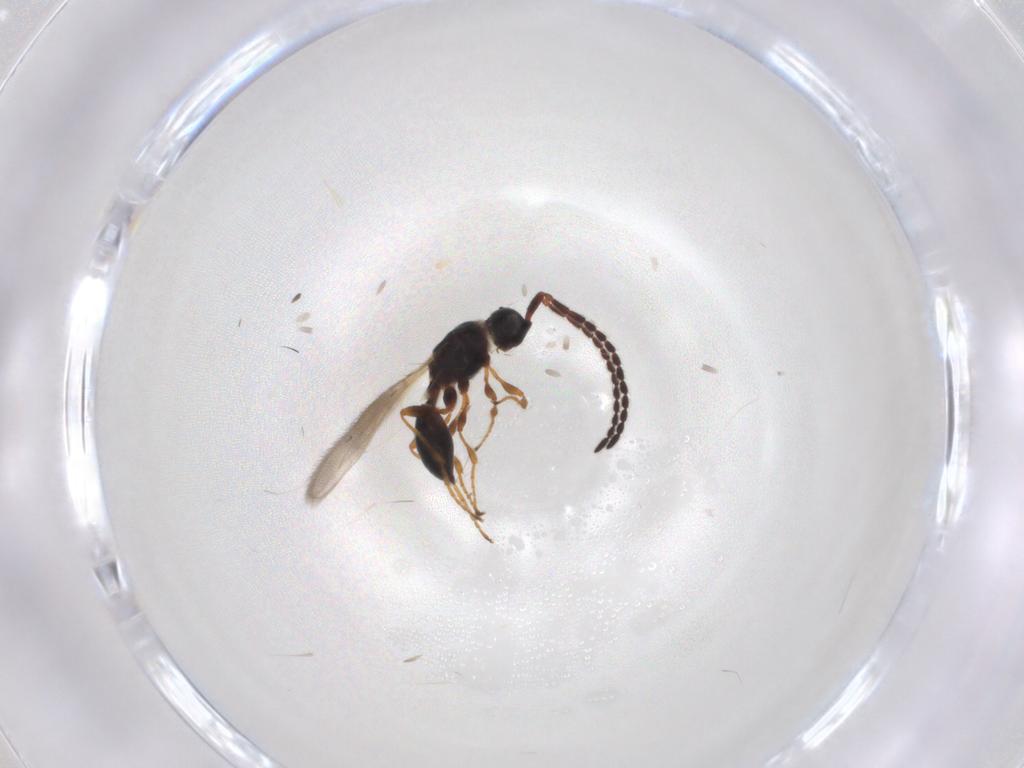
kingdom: Animalia
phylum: Arthropoda
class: Insecta
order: Hymenoptera
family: Diapriidae
